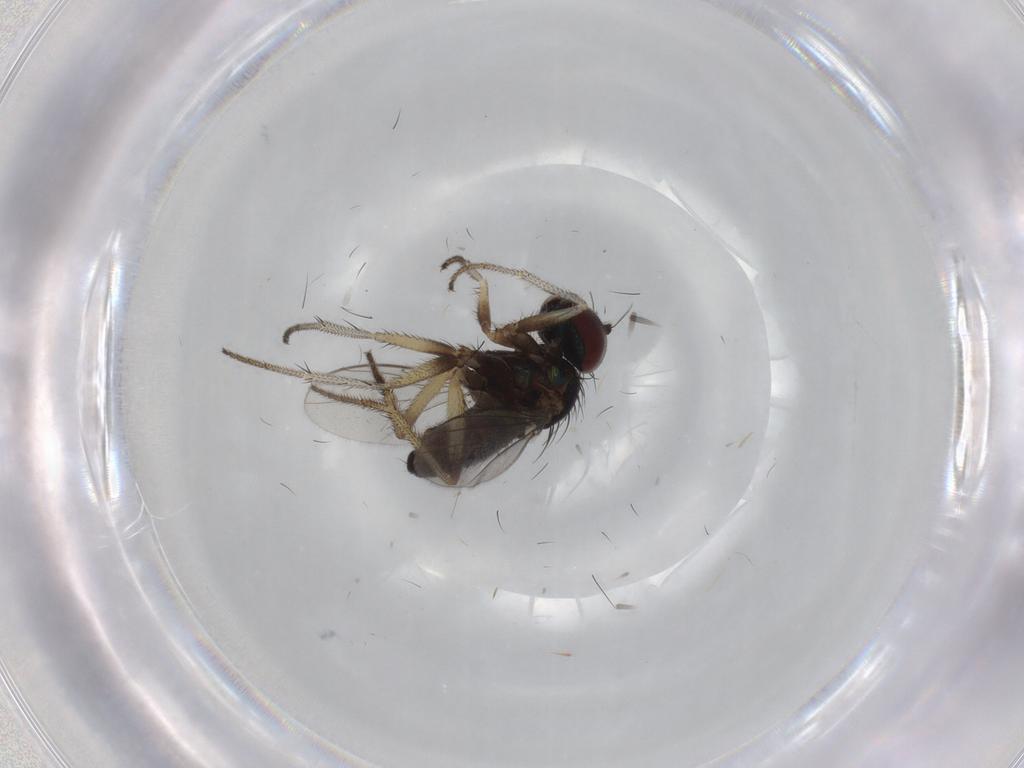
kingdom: Animalia
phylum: Arthropoda
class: Insecta
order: Diptera
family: Dolichopodidae
